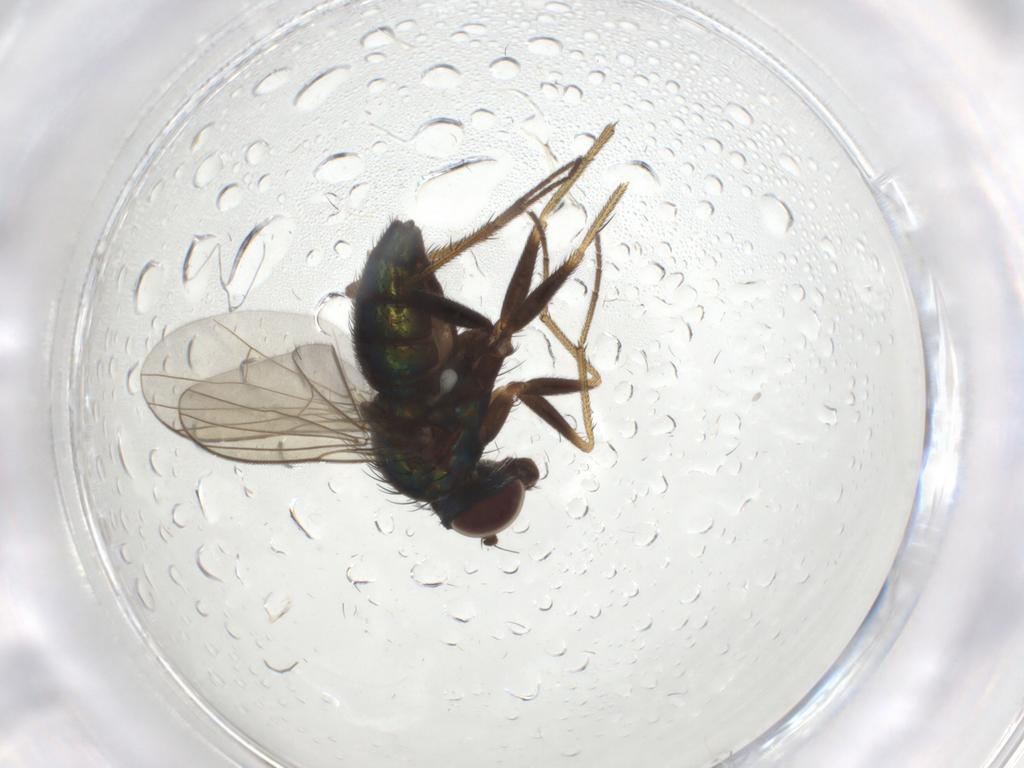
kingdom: Animalia
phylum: Arthropoda
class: Insecta
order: Diptera
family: Dolichopodidae
